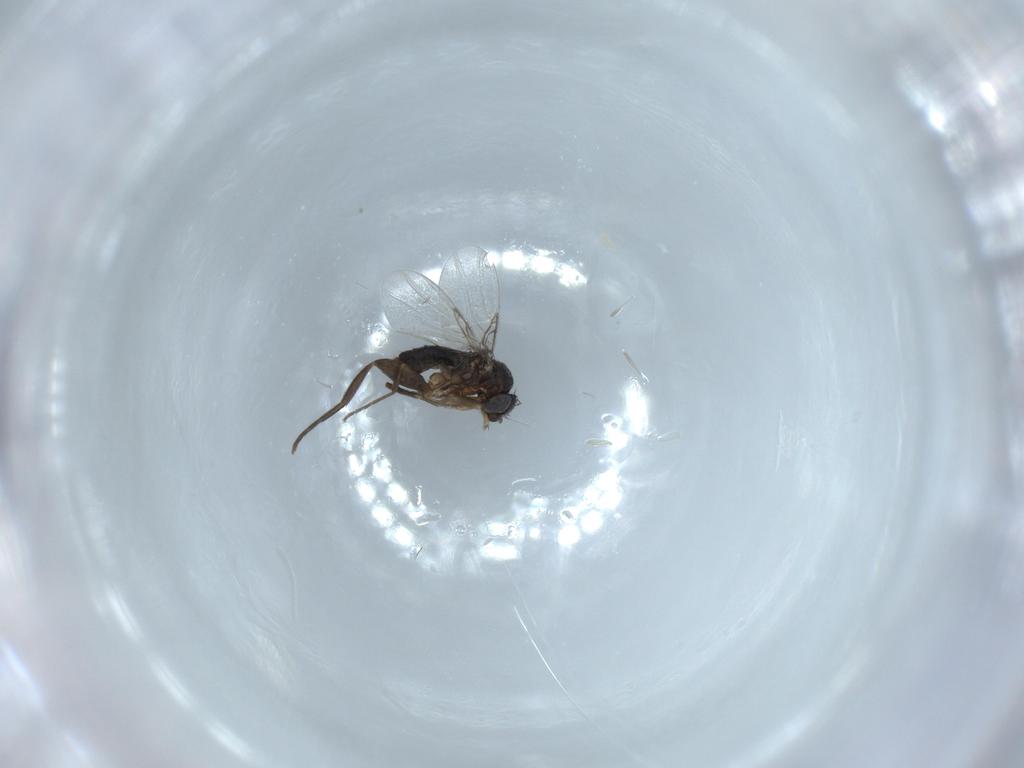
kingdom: Animalia
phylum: Arthropoda
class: Insecta
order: Diptera
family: Phoridae
